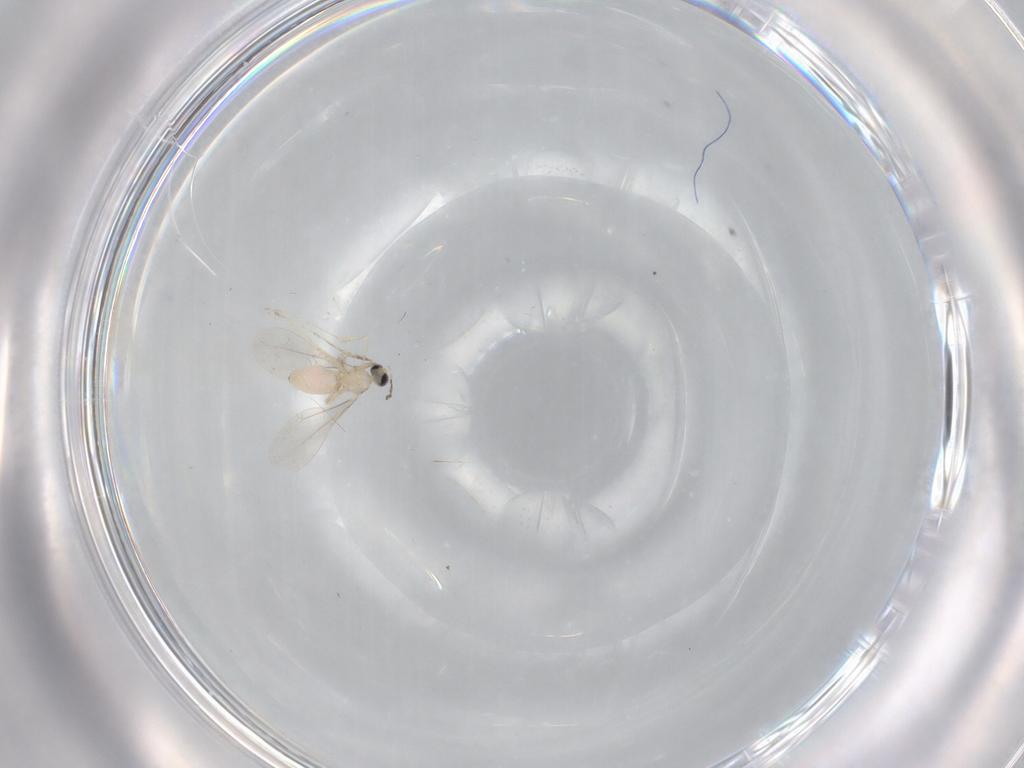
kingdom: Animalia
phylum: Arthropoda
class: Insecta
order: Diptera
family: Cecidomyiidae
